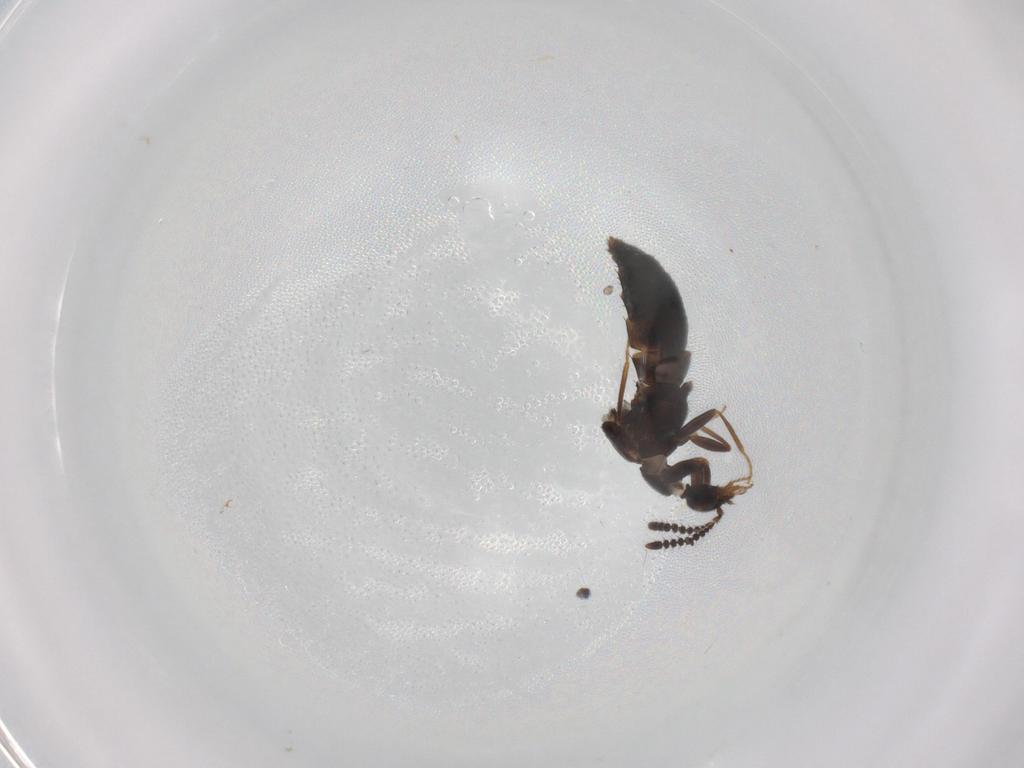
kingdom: Animalia
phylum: Arthropoda
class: Insecta
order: Coleoptera
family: Staphylinidae
